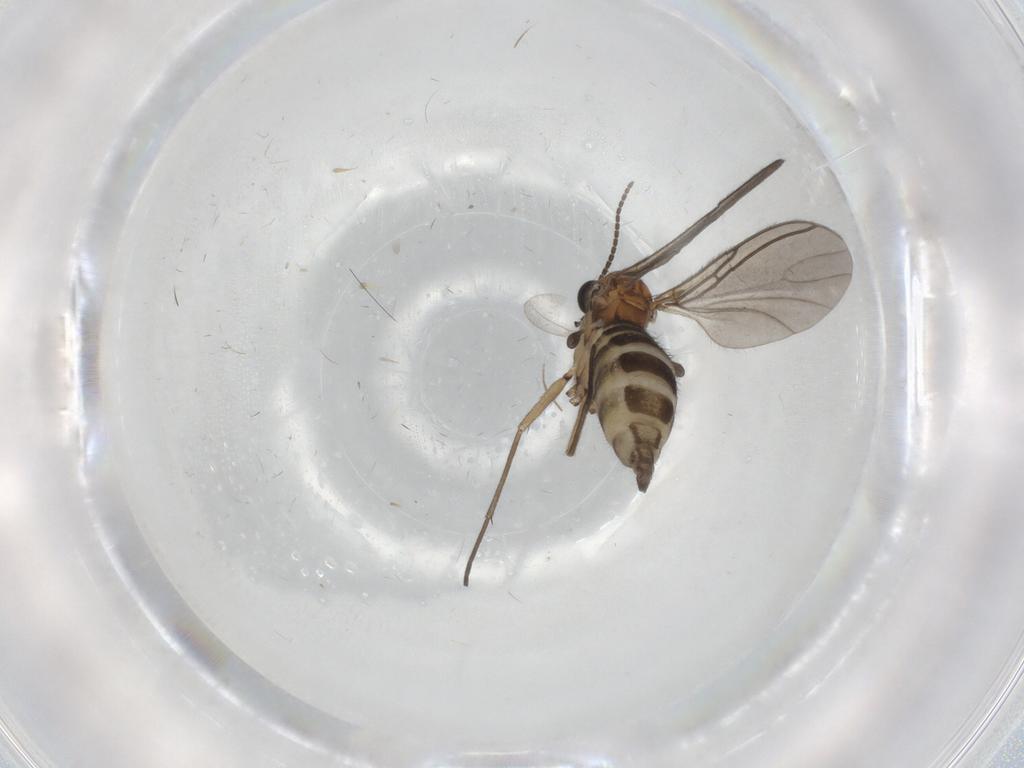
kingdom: Animalia
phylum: Arthropoda
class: Insecta
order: Diptera
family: Sciaridae
